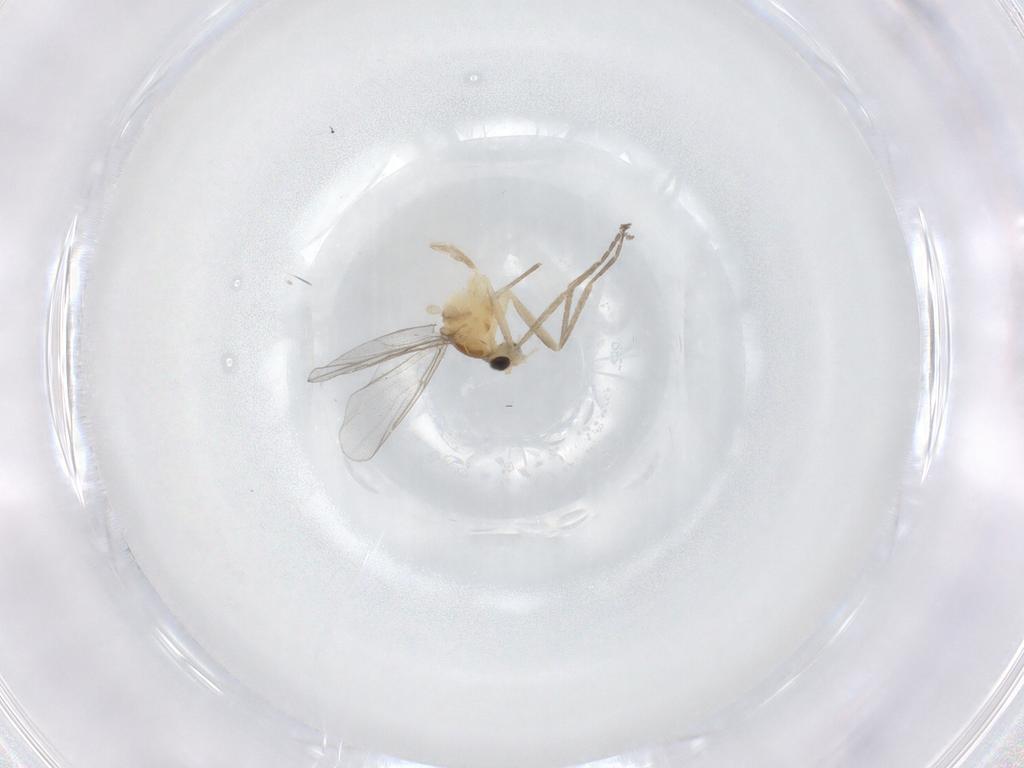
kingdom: Animalia
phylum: Arthropoda
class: Insecta
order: Diptera
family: Cecidomyiidae
